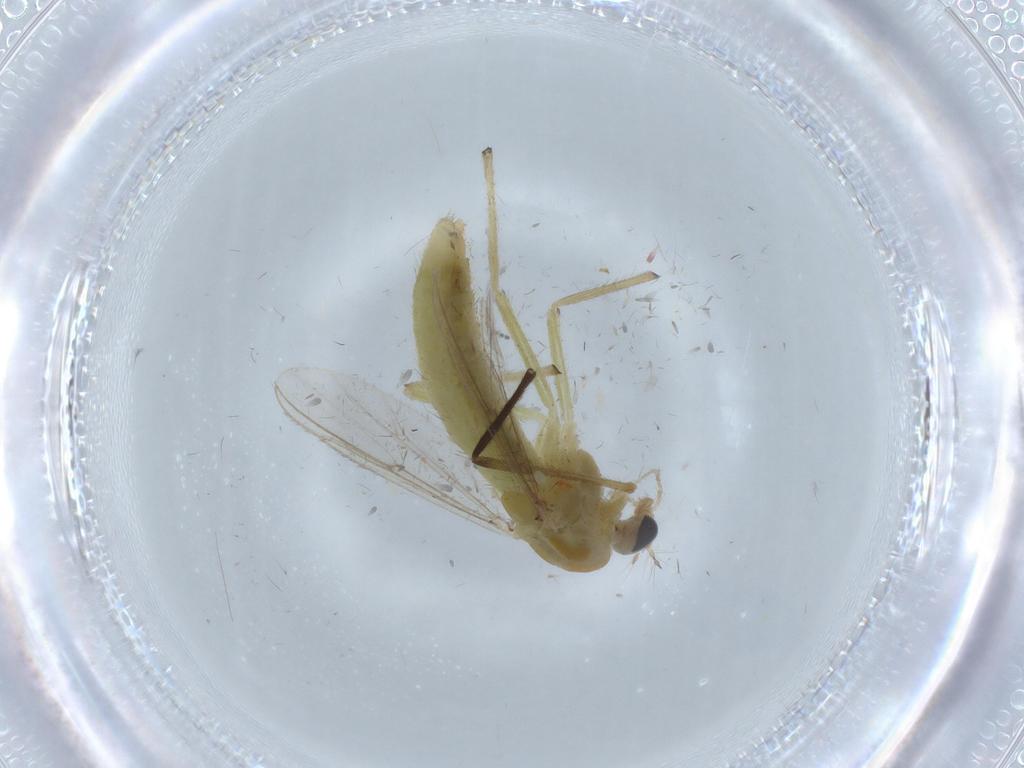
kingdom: Animalia
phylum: Arthropoda
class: Insecta
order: Diptera
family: Chironomidae
